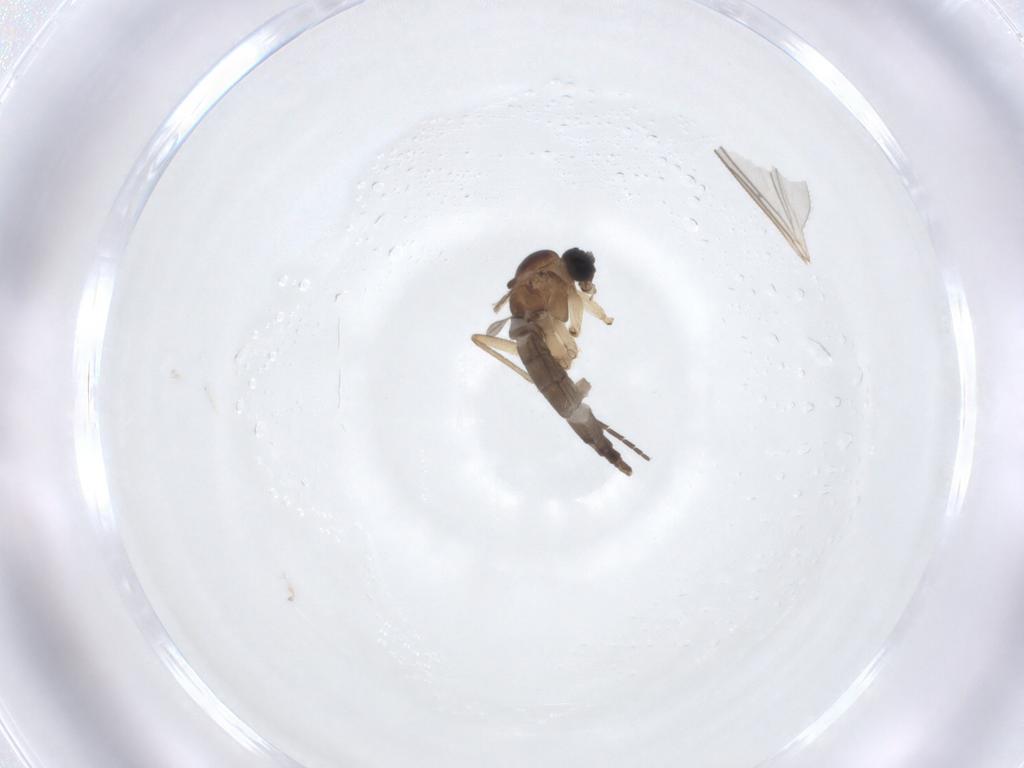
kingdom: Animalia
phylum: Arthropoda
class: Insecta
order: Diptera
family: Sciaridae
